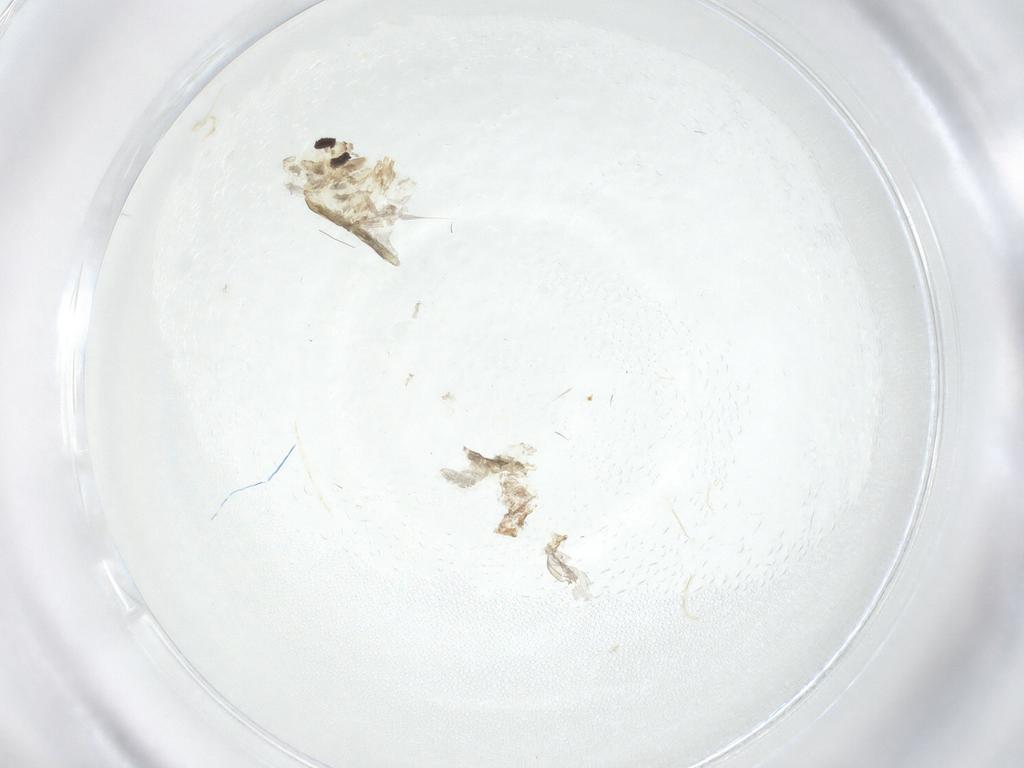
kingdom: Animalia
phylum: Arthropoda
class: Insecta
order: Diptera
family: Chironomidae
